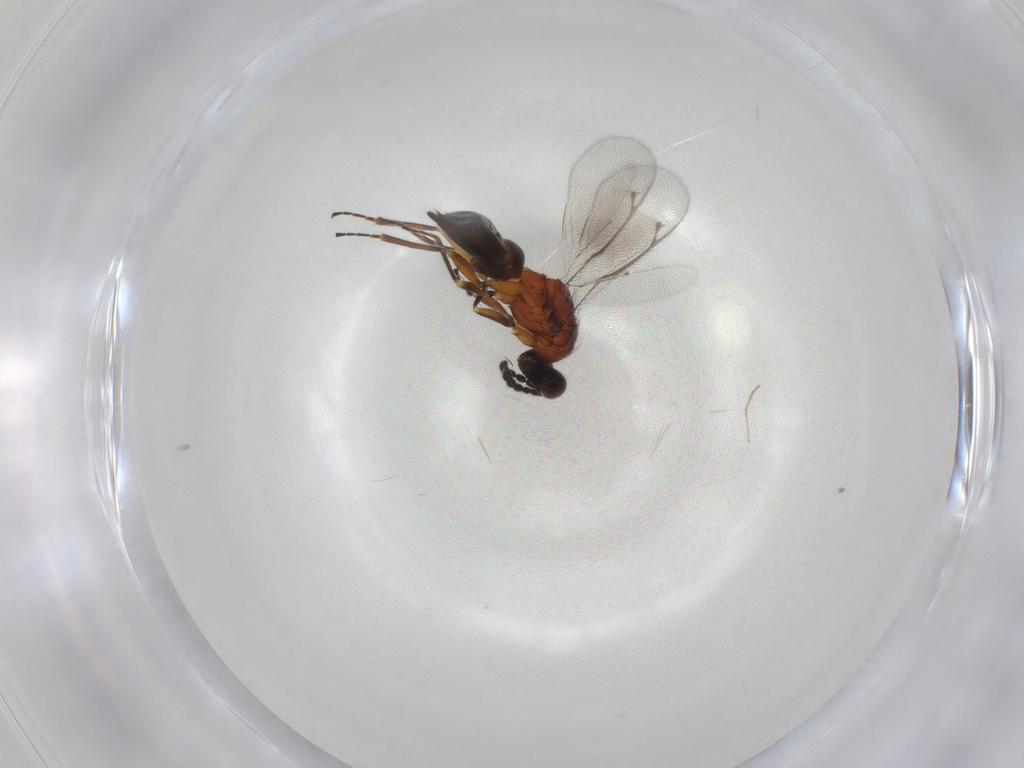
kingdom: Animalia
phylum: Arthropoda
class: Insecta
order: Hymenoptera
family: Eulophidae
